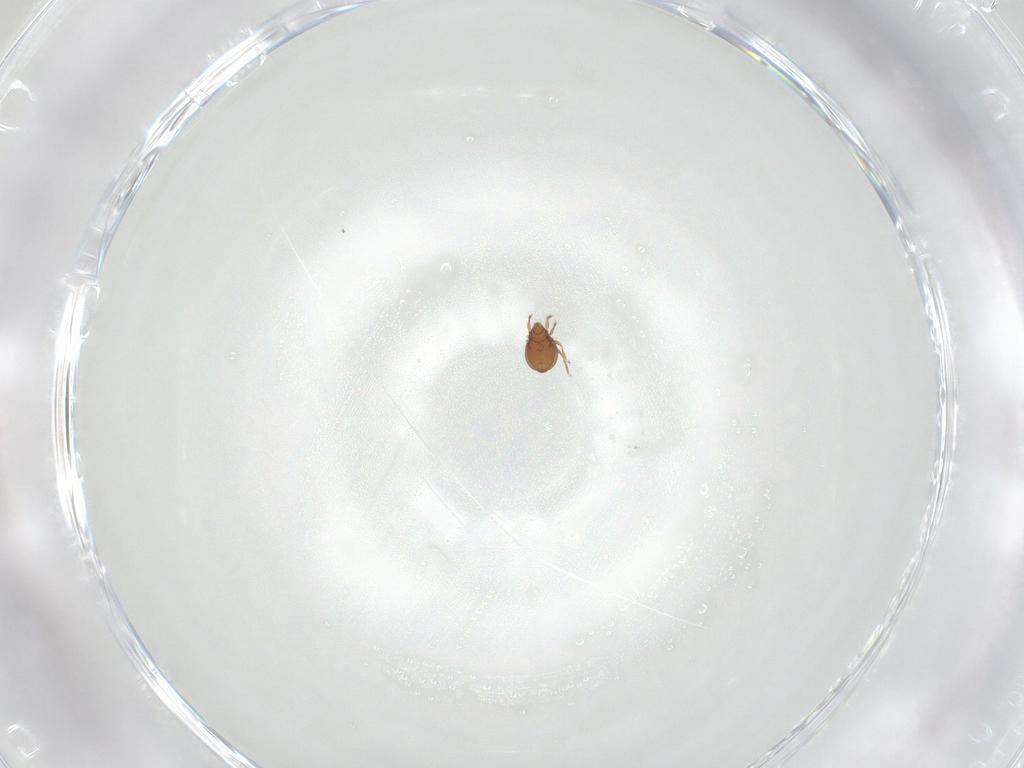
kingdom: Animalia
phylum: Arthropoda
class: Arachnida
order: Sarcoptiformes
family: Oribatulidae
